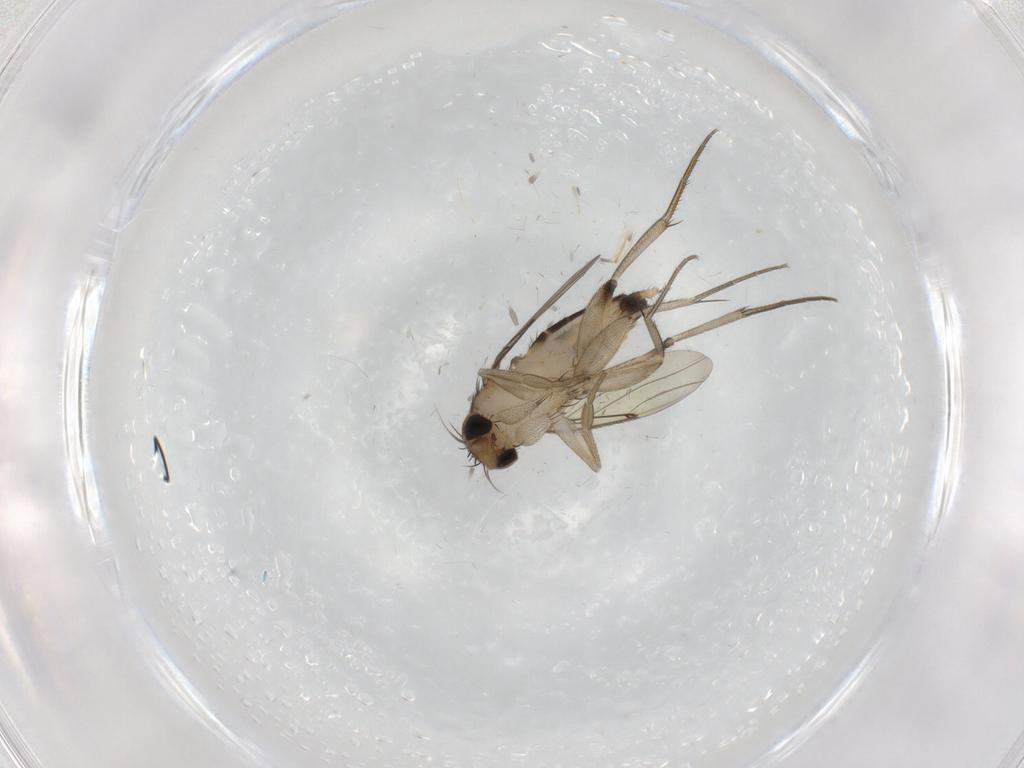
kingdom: Animalia
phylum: Arthropoda
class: Insecta
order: Diptera
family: Phoridae
